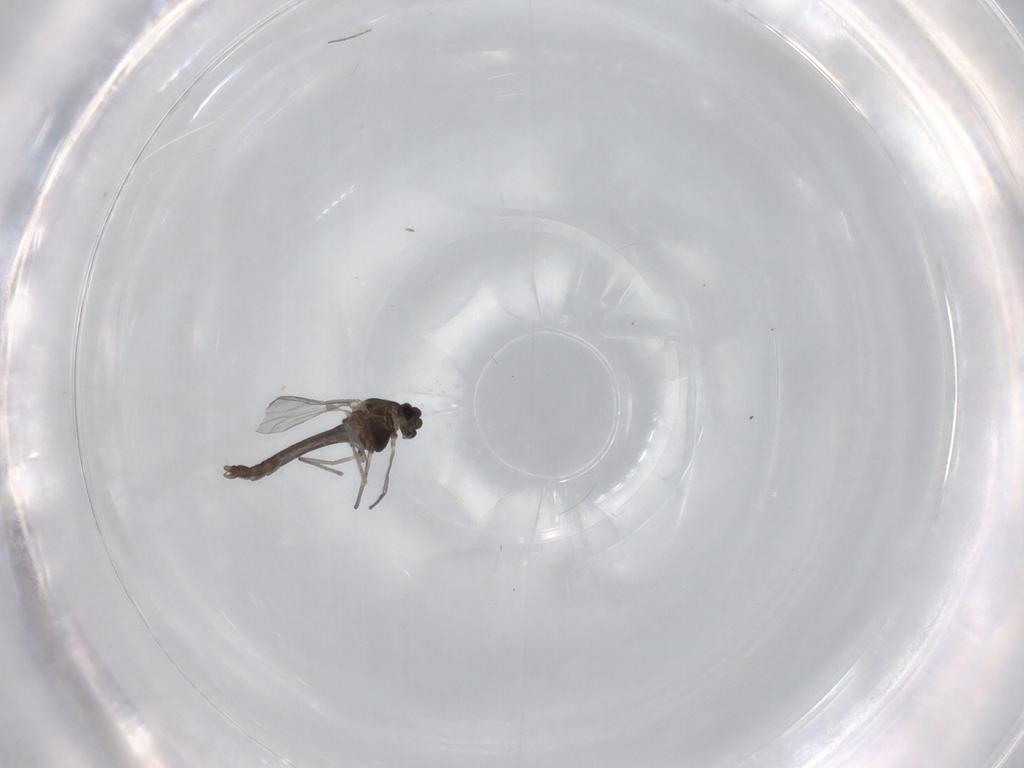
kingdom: Animalia
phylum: Arthropoda
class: Insecta
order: Diptera
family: Chironomidae
